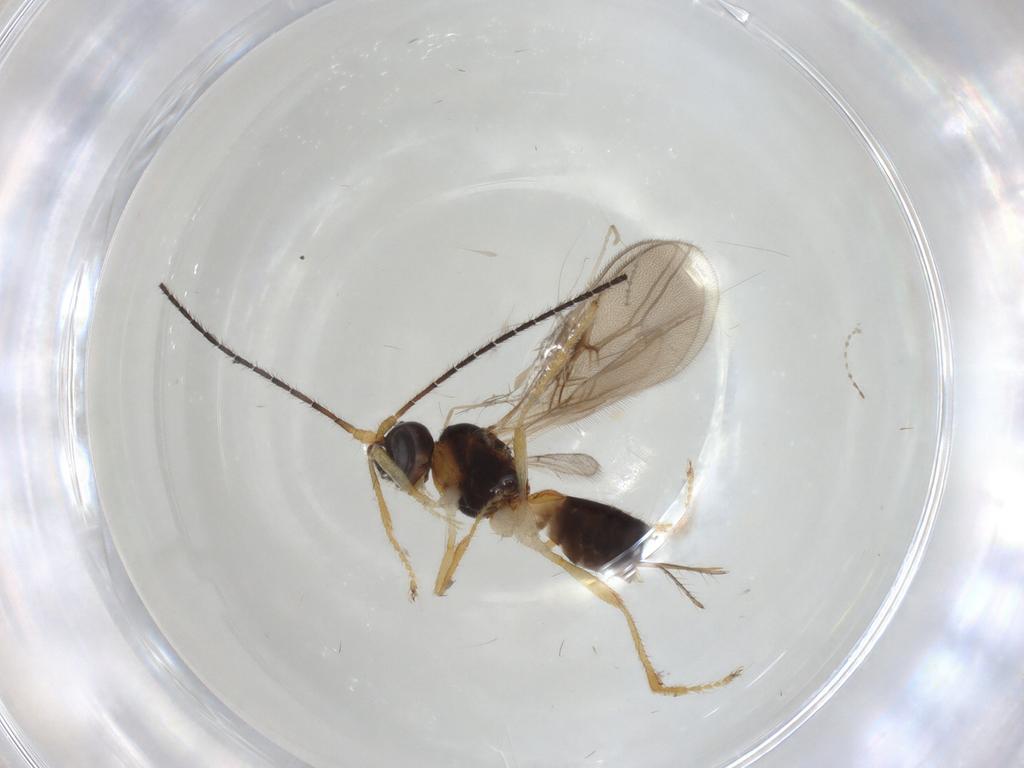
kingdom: Animalia
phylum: Arthropoda
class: Insecta
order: Hymenoptera
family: Braconidae
